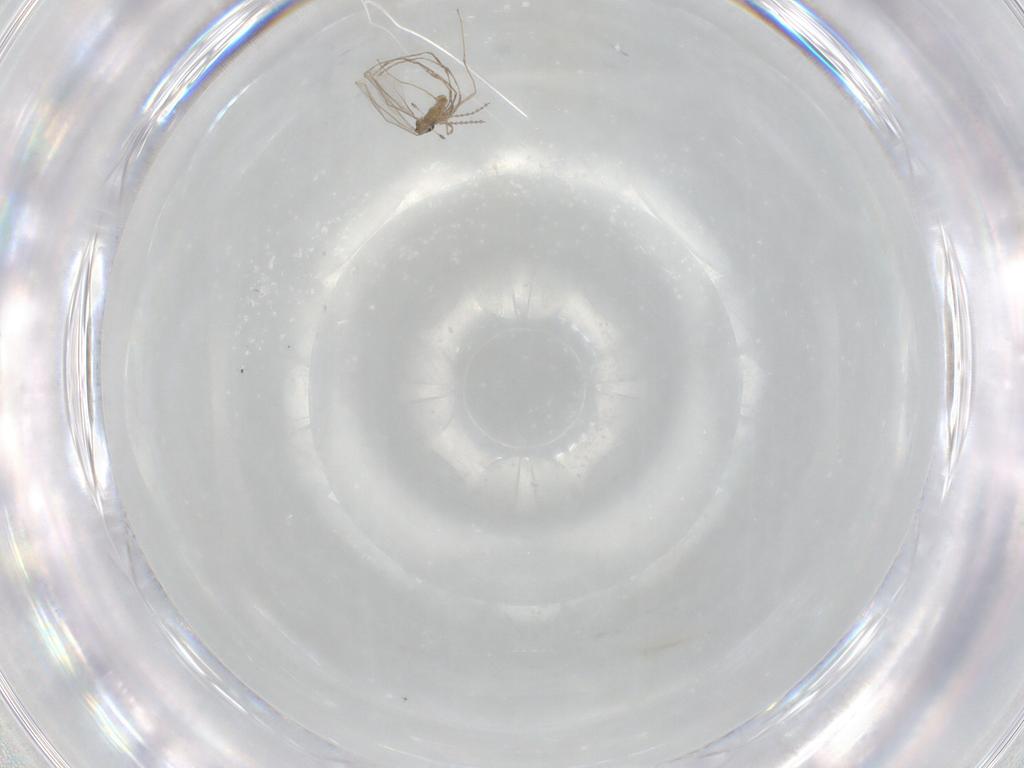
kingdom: Animalia
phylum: Arthropoda
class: Insecta
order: Diptera
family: Cecidomyiidae
